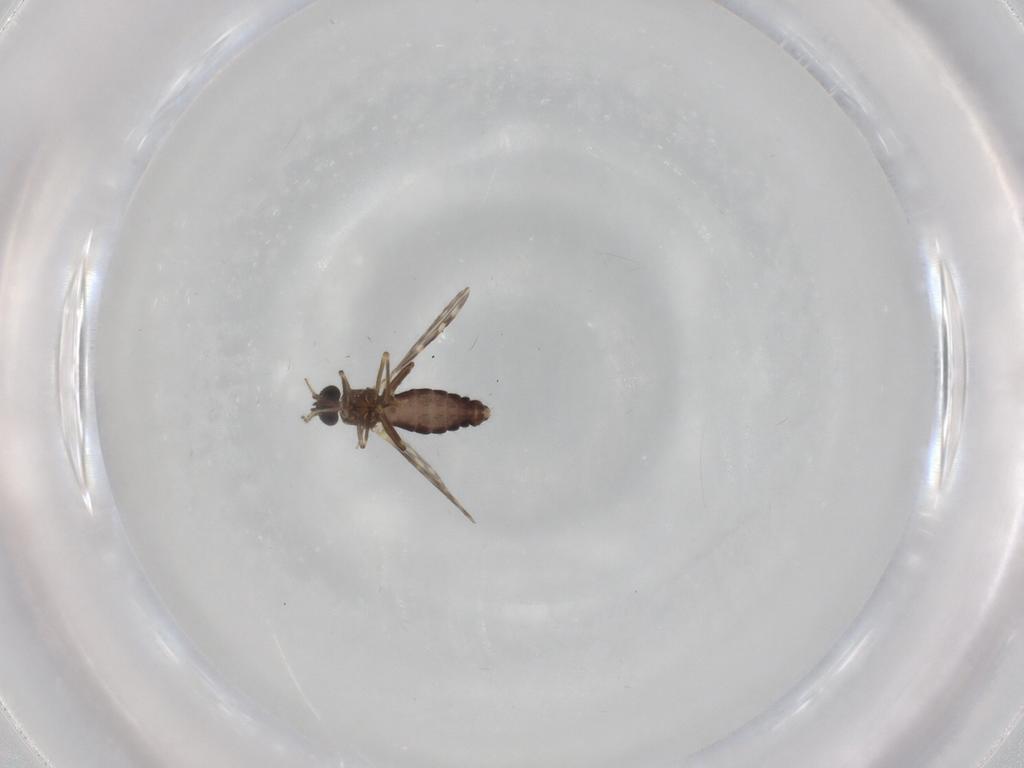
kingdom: Animalia
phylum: Arthropoda
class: Insecta
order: Diptera
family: Ceratopogonidae
